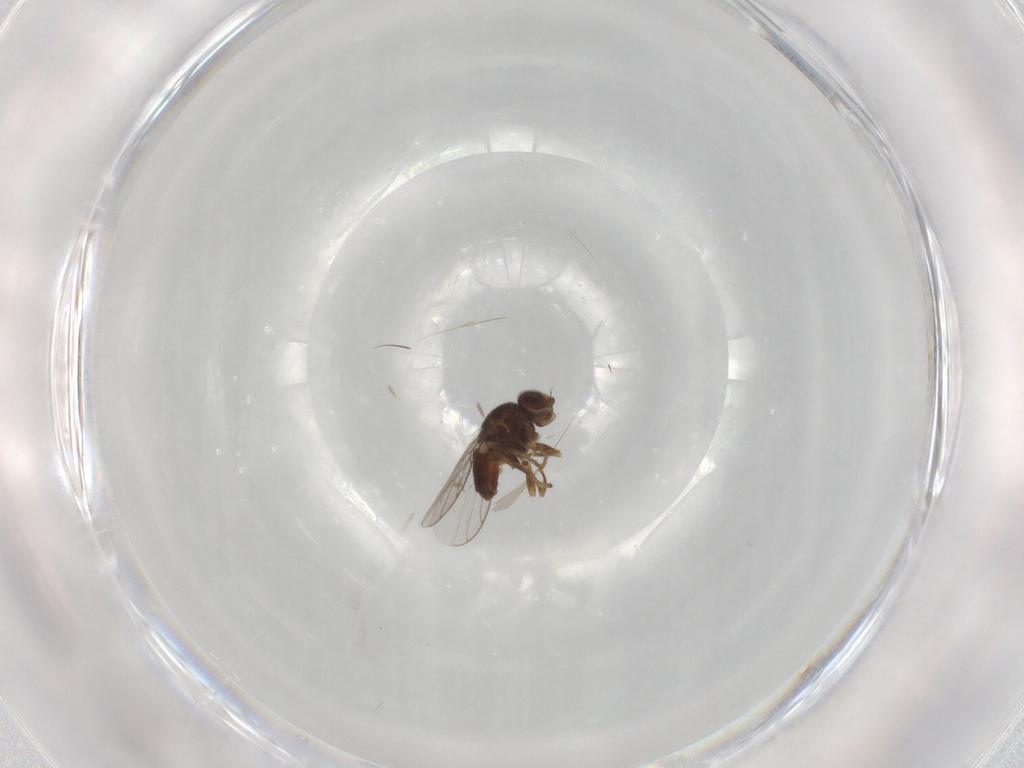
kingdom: Animalia
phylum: Arthropoda
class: Insecta
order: Diptera
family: Chloropidae
